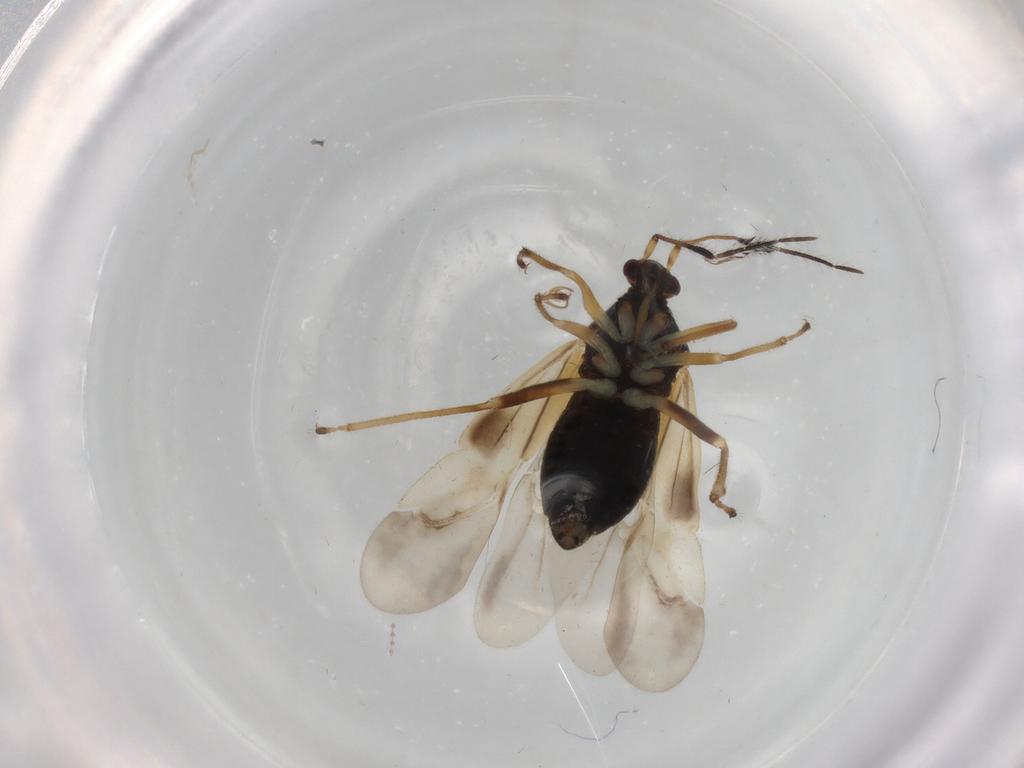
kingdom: Animalia
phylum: Arthropoda
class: Insecta
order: Hemiptera
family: Miridae
